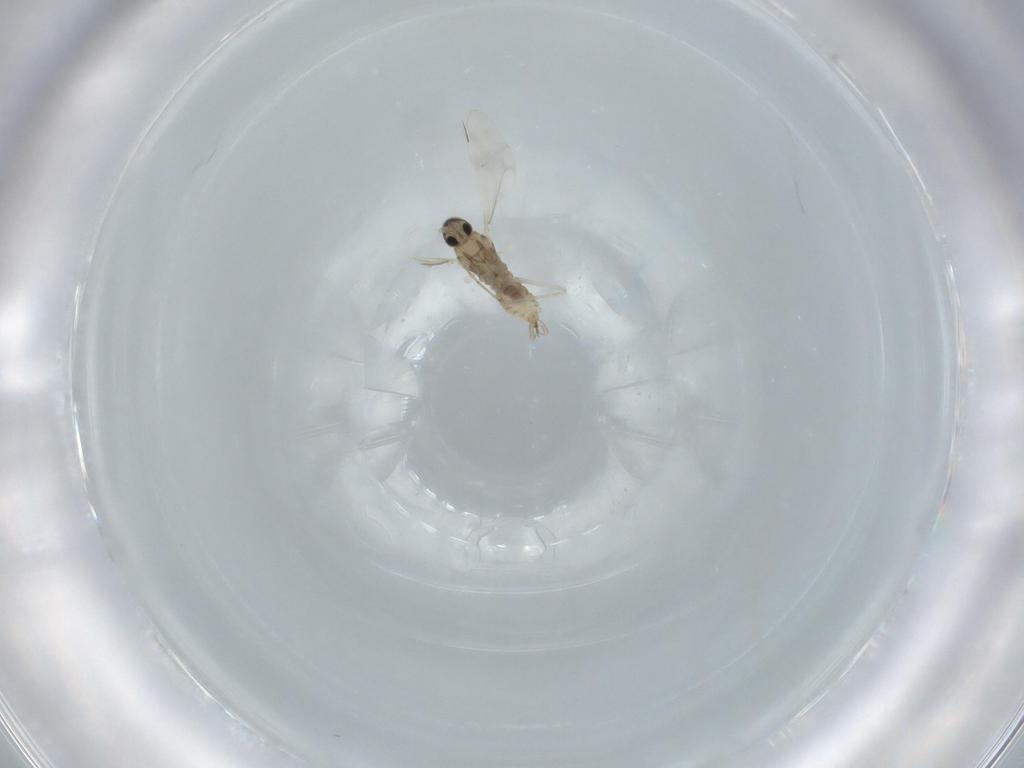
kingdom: Animalia
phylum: Arthropoda
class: Insecta
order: Diptera
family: Cecidomyiidae
